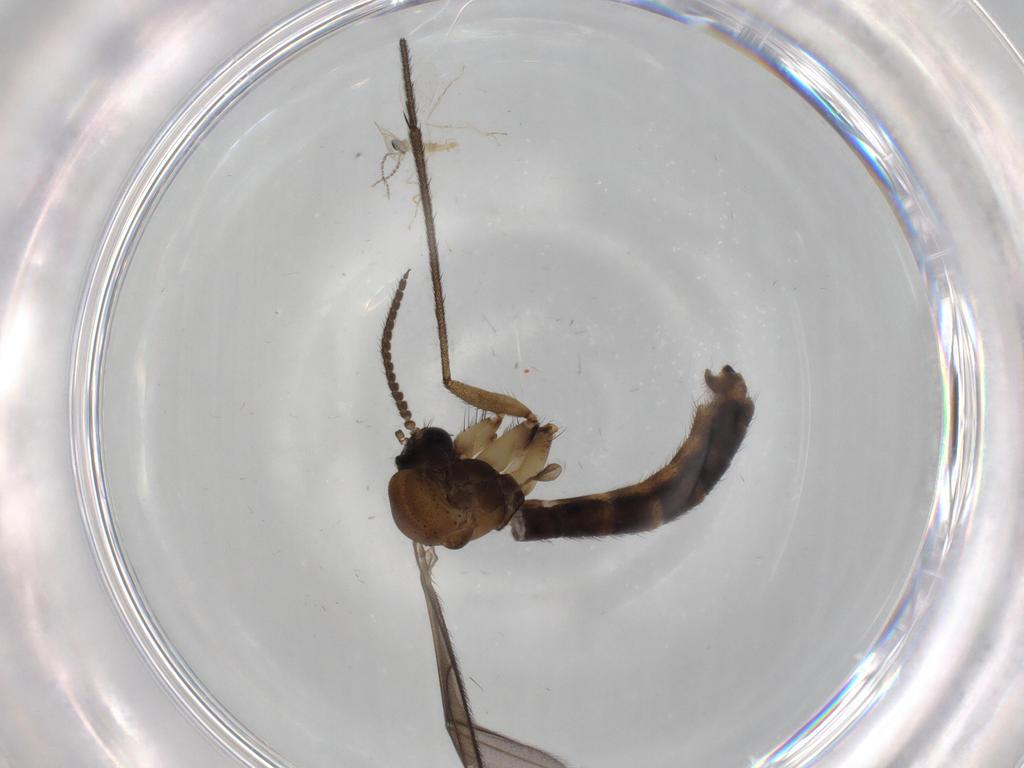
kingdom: Animalia
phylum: Arthropoda
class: Insecta
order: Diptera
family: Chironomidae
